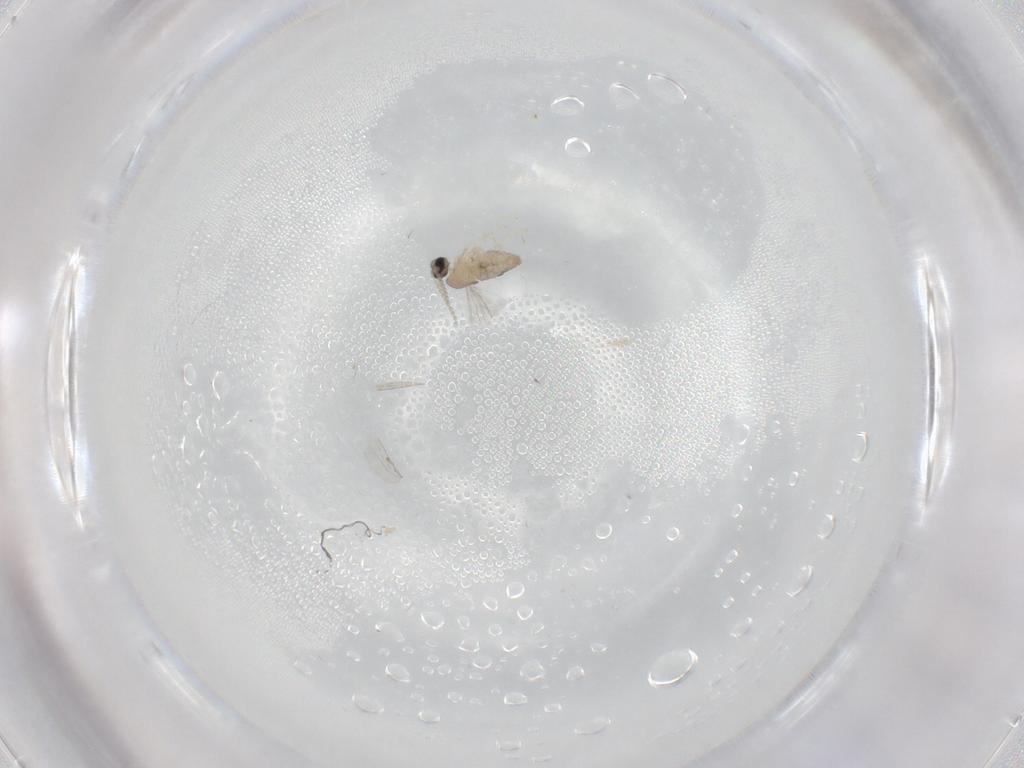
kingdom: Animalia
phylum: Arthropoda
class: Insecta
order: Diptera
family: Cecidomyiidae
